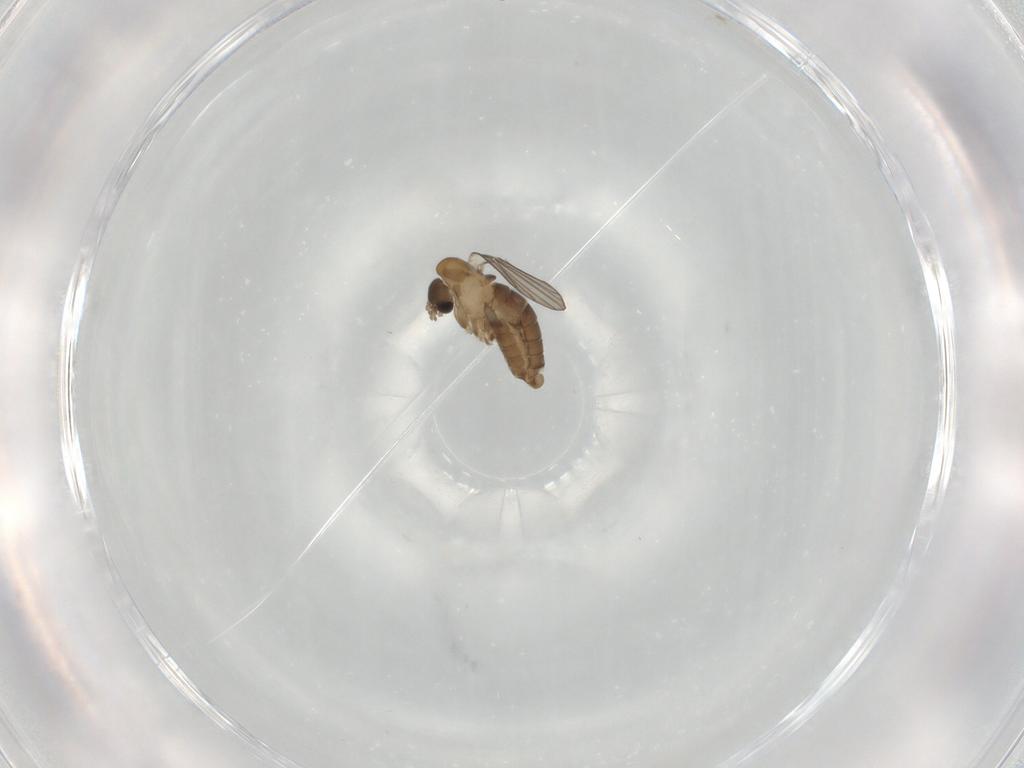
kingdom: Animalia
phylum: Arthropoda
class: Insecta
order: Diptera
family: Psychodidae
